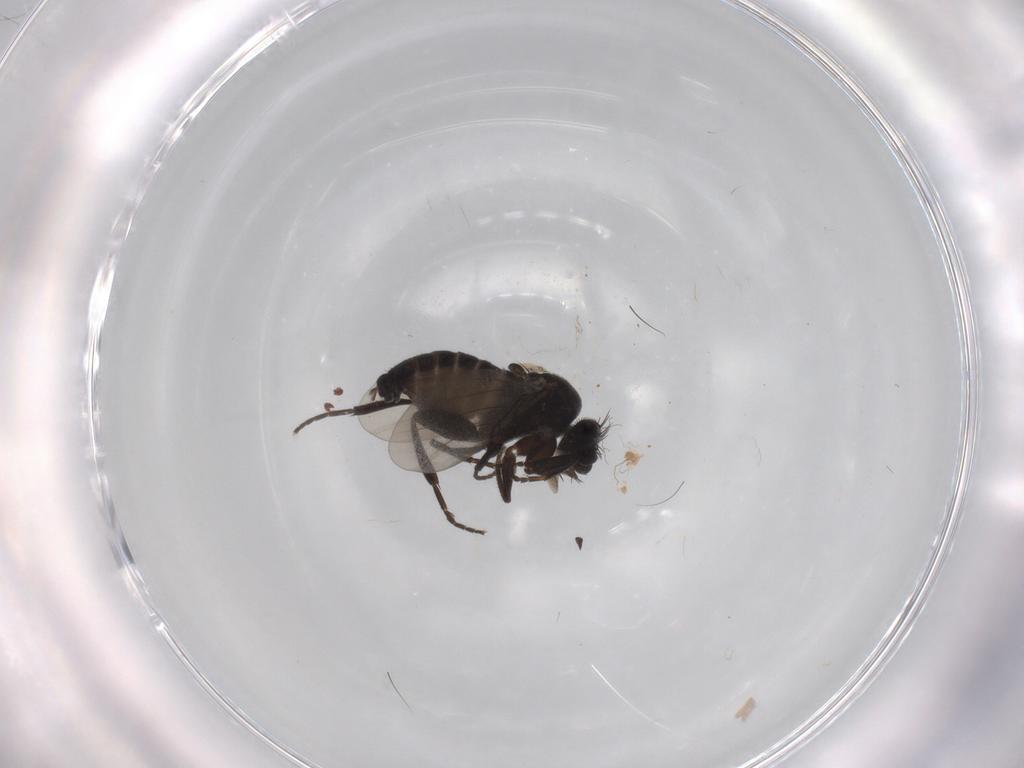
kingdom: Animalia
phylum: Arthropoda
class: Insecta
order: Diptera
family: Phoridae
